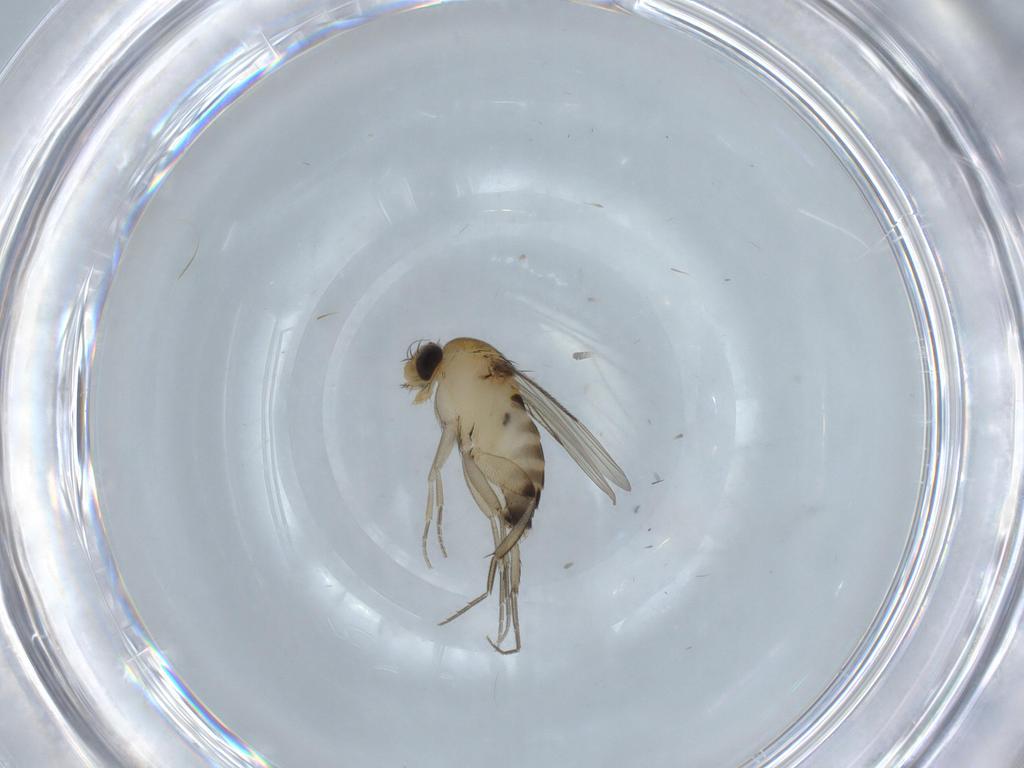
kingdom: Animalia
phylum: Arthropoda
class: Insecta
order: Diptera
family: Phoridae
